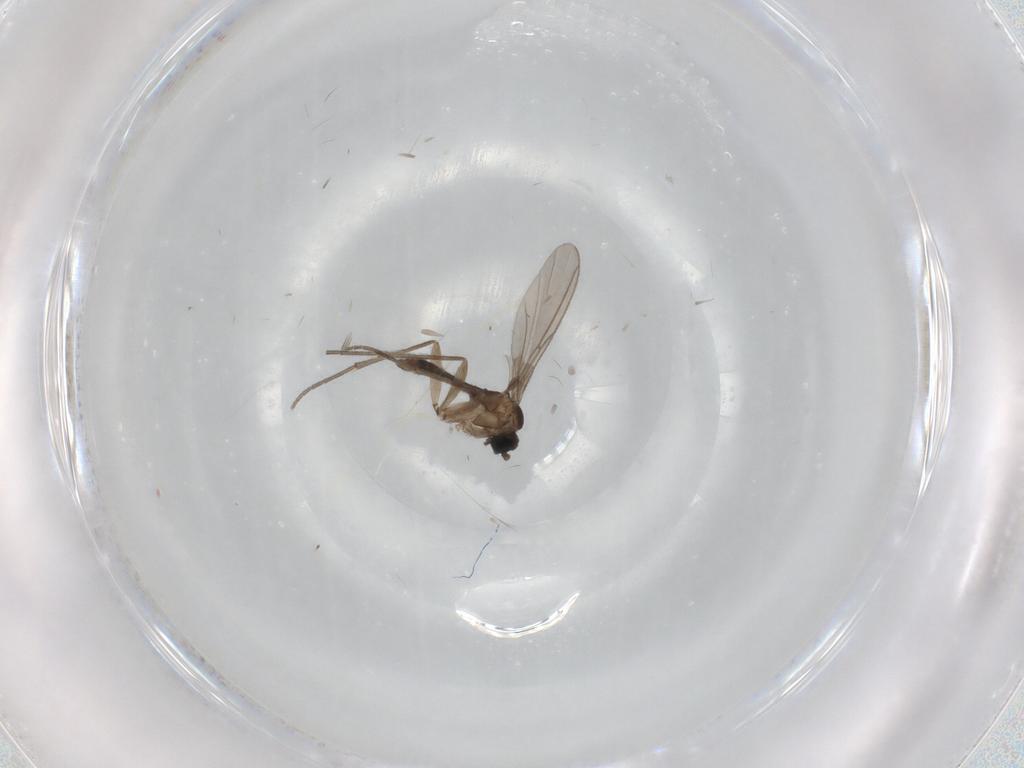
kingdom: Animalia
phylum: Arthropoda
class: Insecta
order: Diptera
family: Sciaridae
